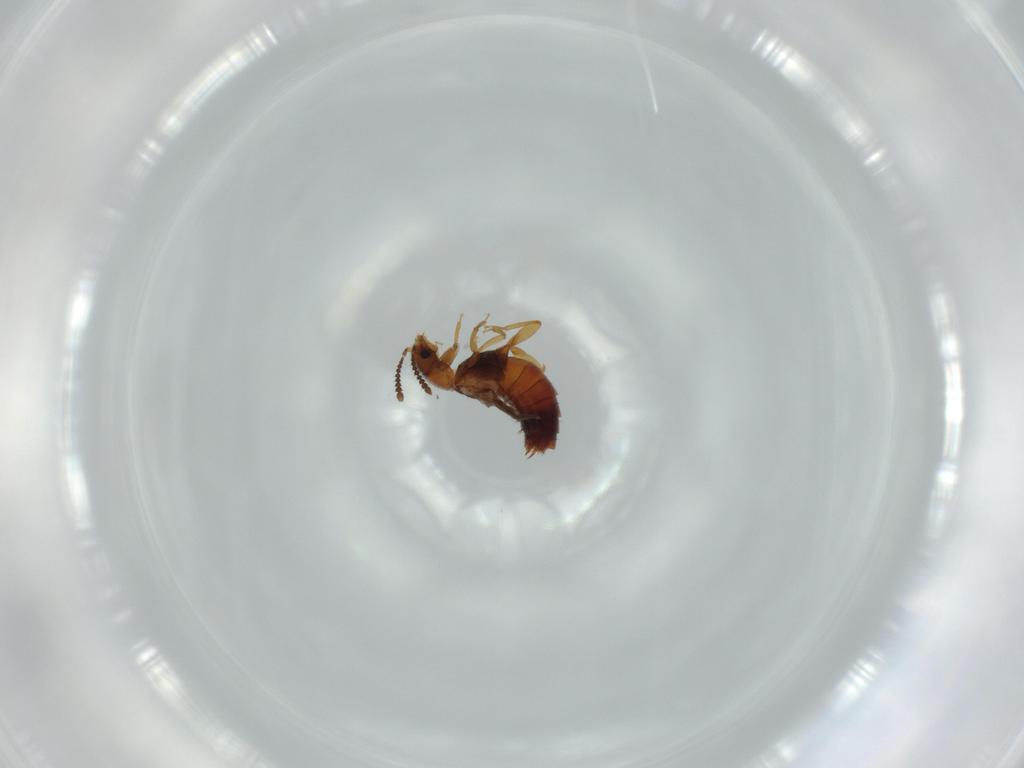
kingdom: Animalia
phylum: Arthropoda
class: Insecta
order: Coleoptera
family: Staphylinidae
